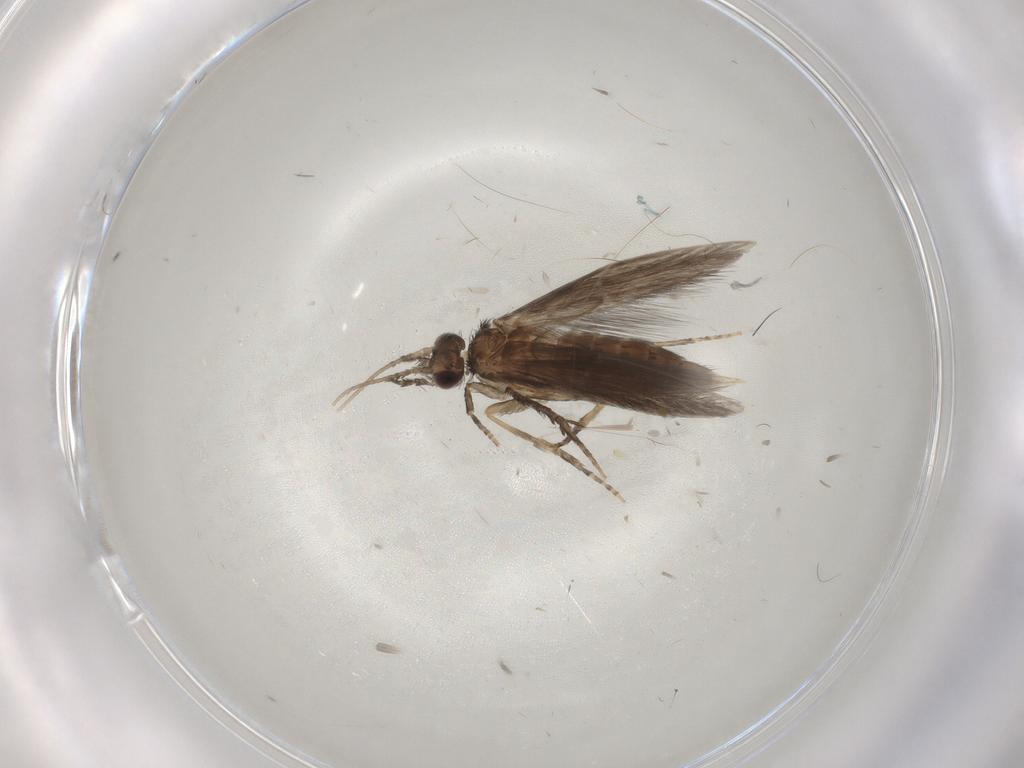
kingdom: Animalia
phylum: Arthropoda
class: Insecta
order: Trichoptera
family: Hydroptilidae
